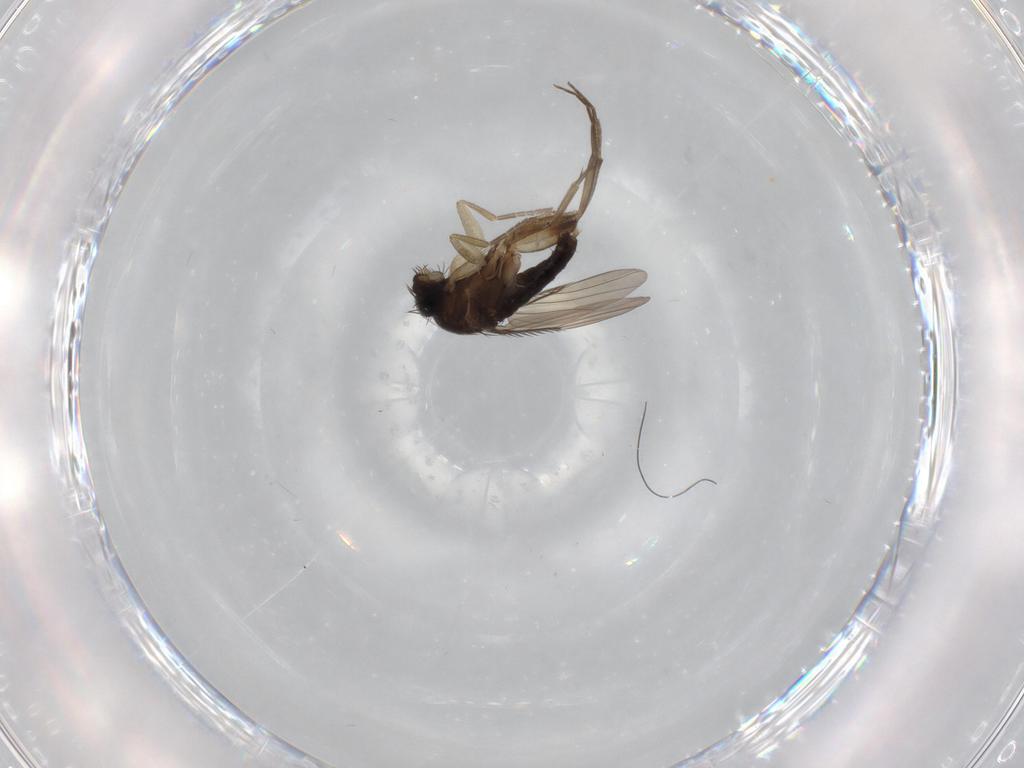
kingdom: Animalia
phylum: Arthropoda
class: Insecta
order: Diptera
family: Phoridae
